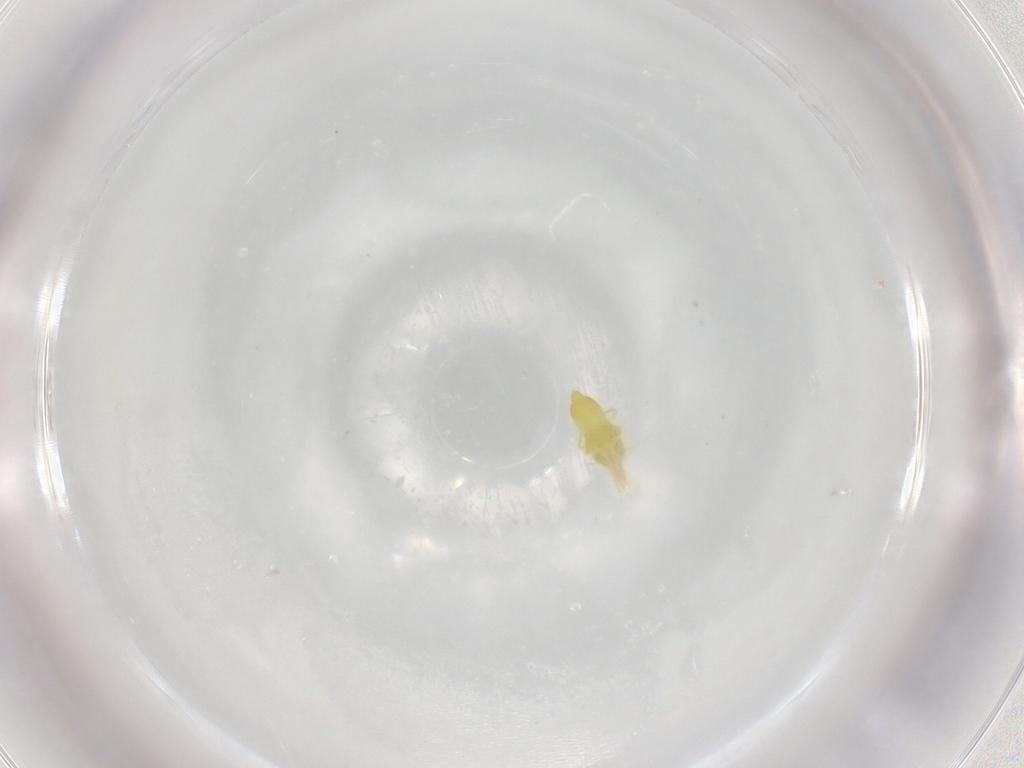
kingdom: Animalia
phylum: Arthropoda
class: Insecta
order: Hemiptera
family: Aleyrodidae
